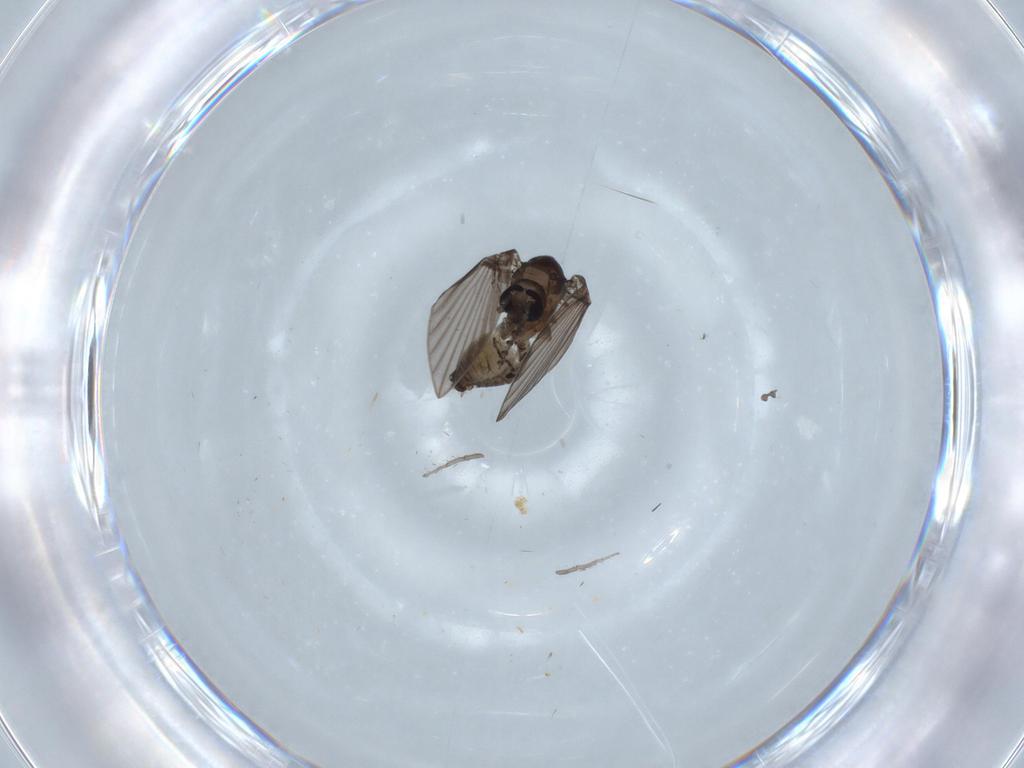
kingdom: Animalia
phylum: Arthropoda
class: Insecta
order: Diptera
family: Psychodidae
